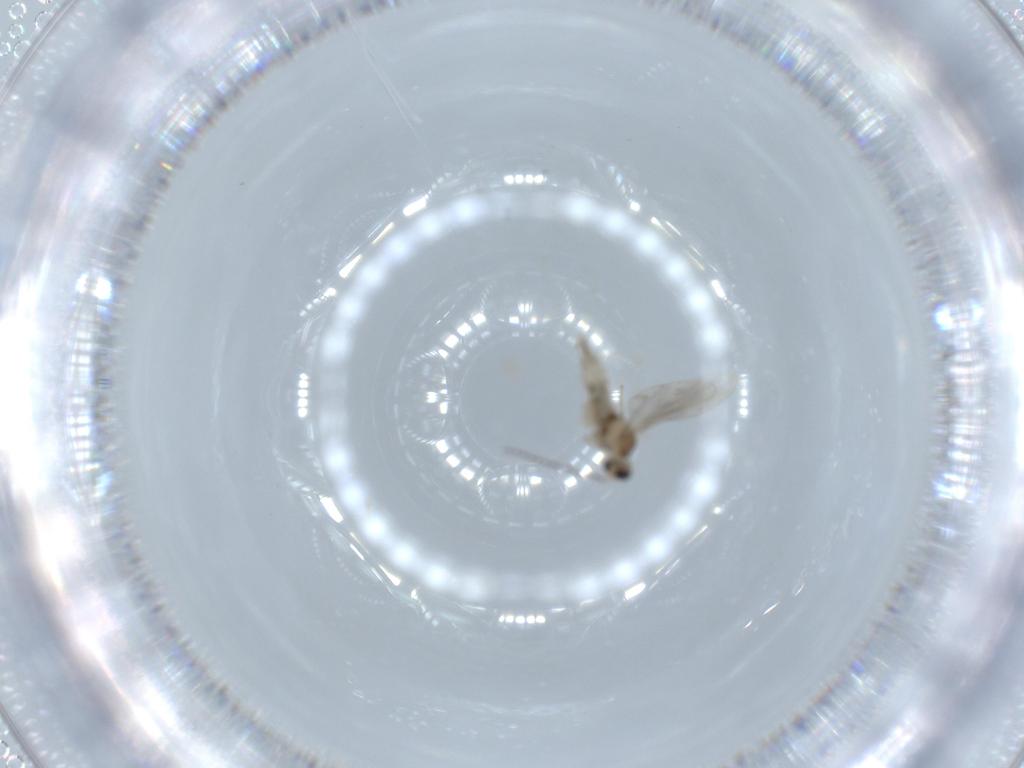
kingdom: Animalia
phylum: Arthropoda
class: Insecta
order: Diptera
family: Cecidomyiidae
